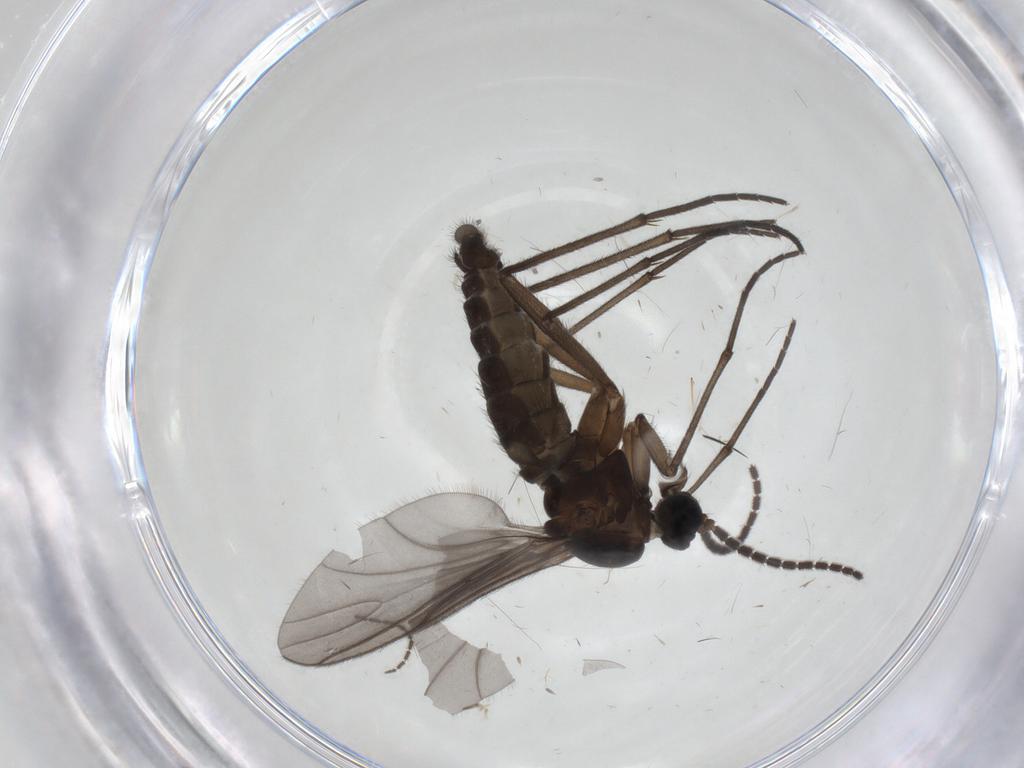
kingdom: Animalia
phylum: Arthropoda
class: Insecta
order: Diptera
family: Sciaridae
